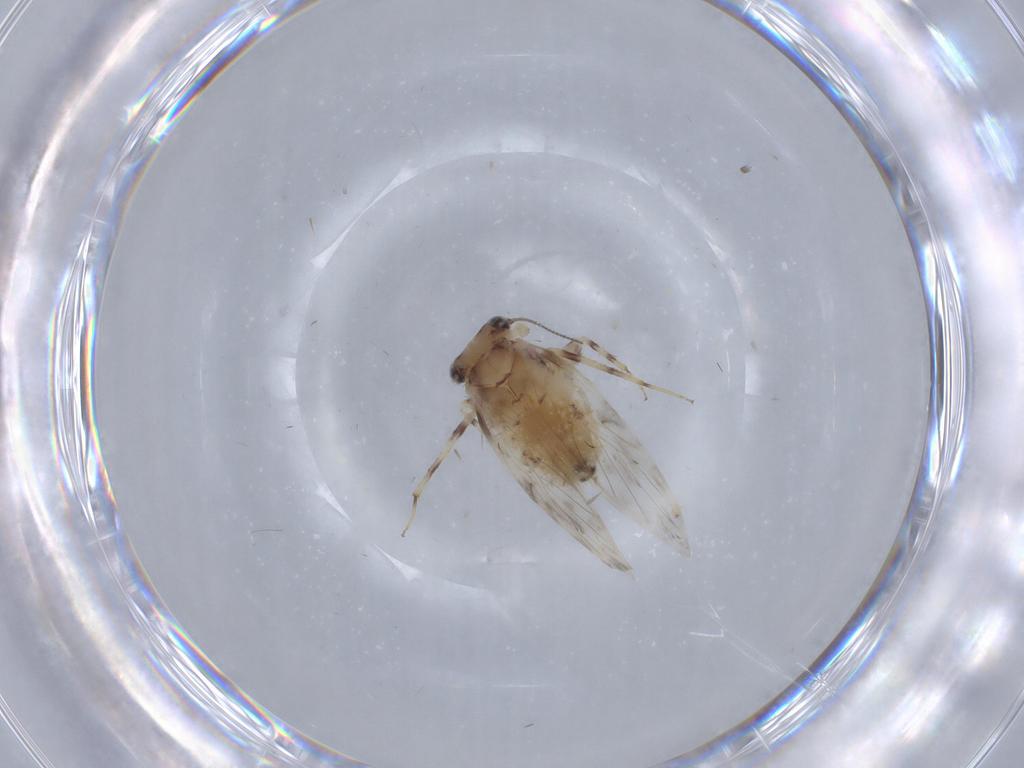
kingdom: Animalia
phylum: Arthropoda
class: Insecta
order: Psocodea
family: Lepidopsocidae
